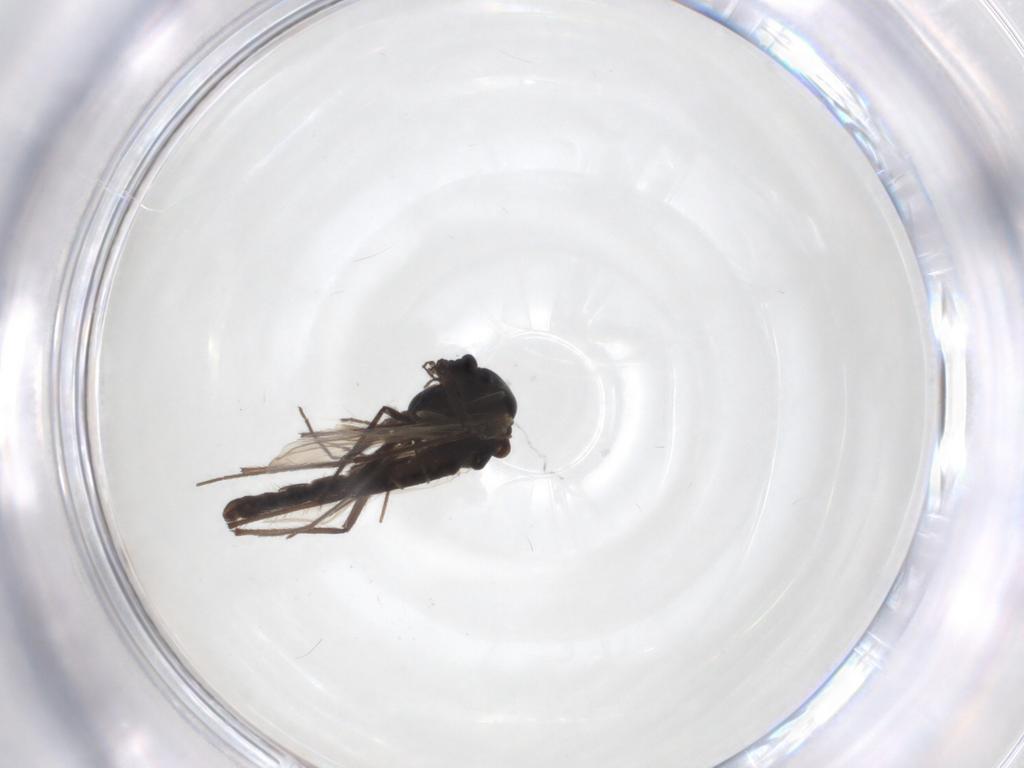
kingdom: Animalia
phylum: Arthropoda
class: Insecta
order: Diptera
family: Chironomidae
